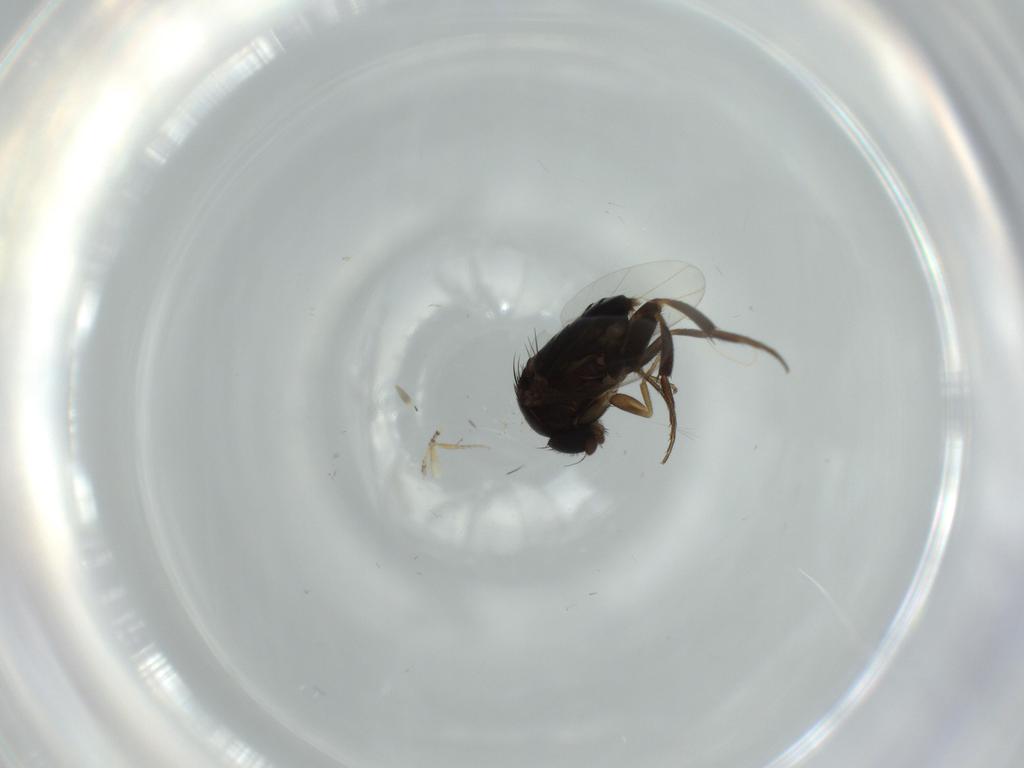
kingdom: Animalia
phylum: Arthropoda
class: Insecta
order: Diptera
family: Phoridae
